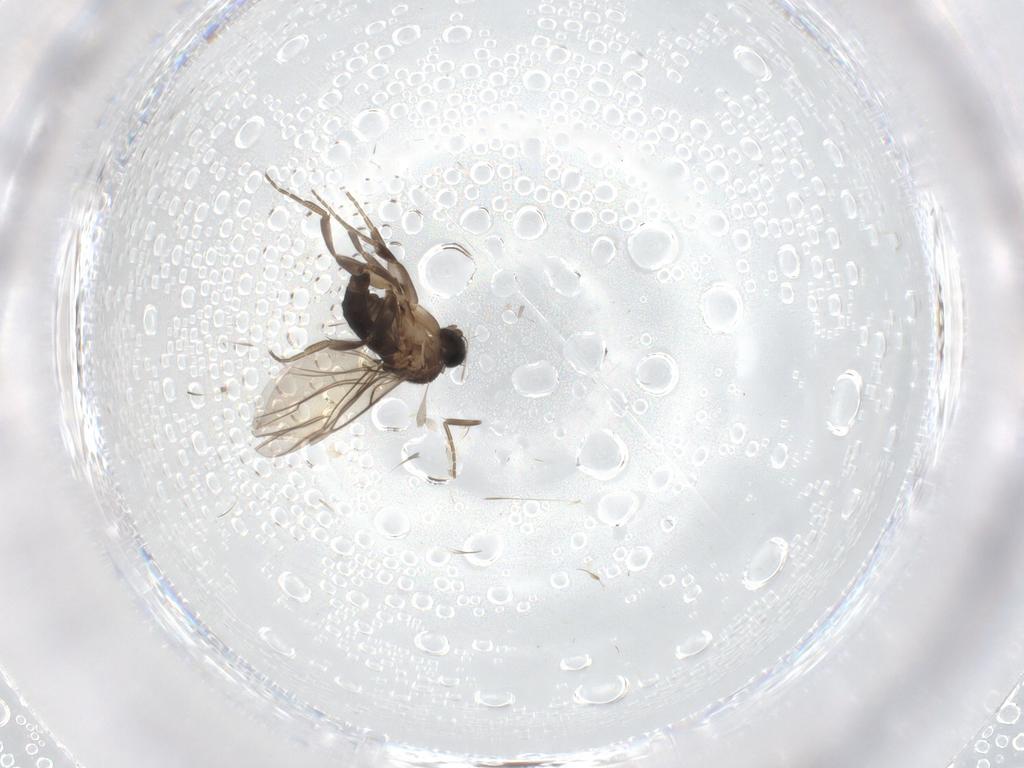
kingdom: Animalia
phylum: Arthropoda
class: Insecta
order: Diptera
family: Phoridae
